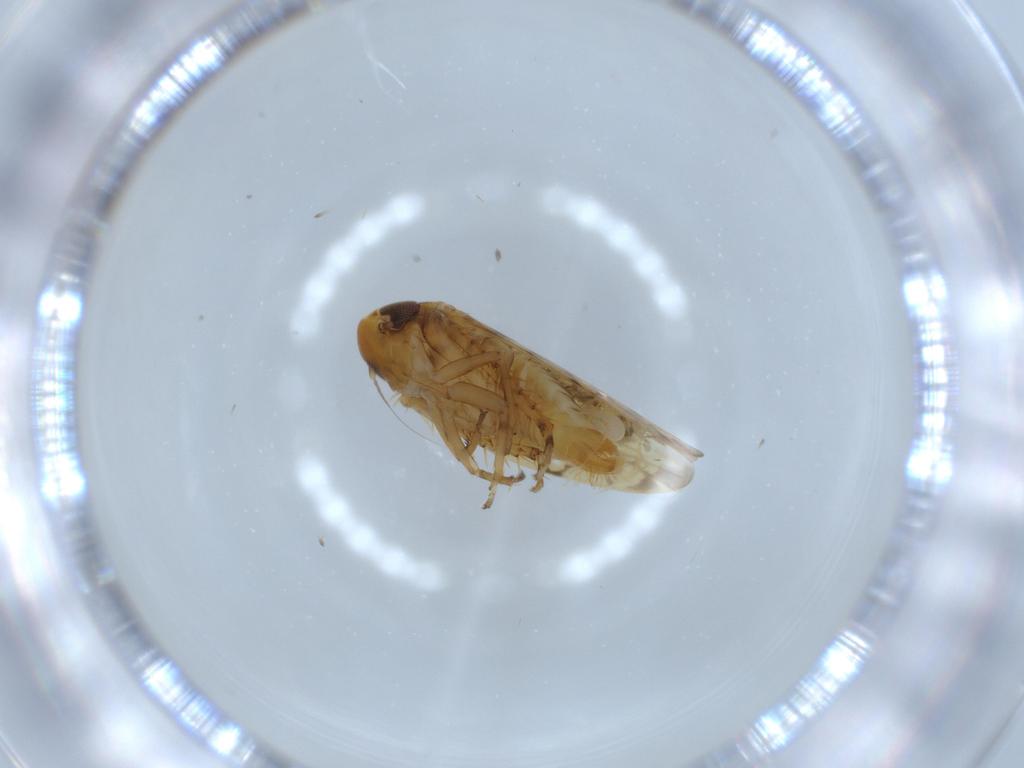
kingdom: Animalia
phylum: Arthropoda
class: Insecta
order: Hemiptera
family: Cicadellidae
